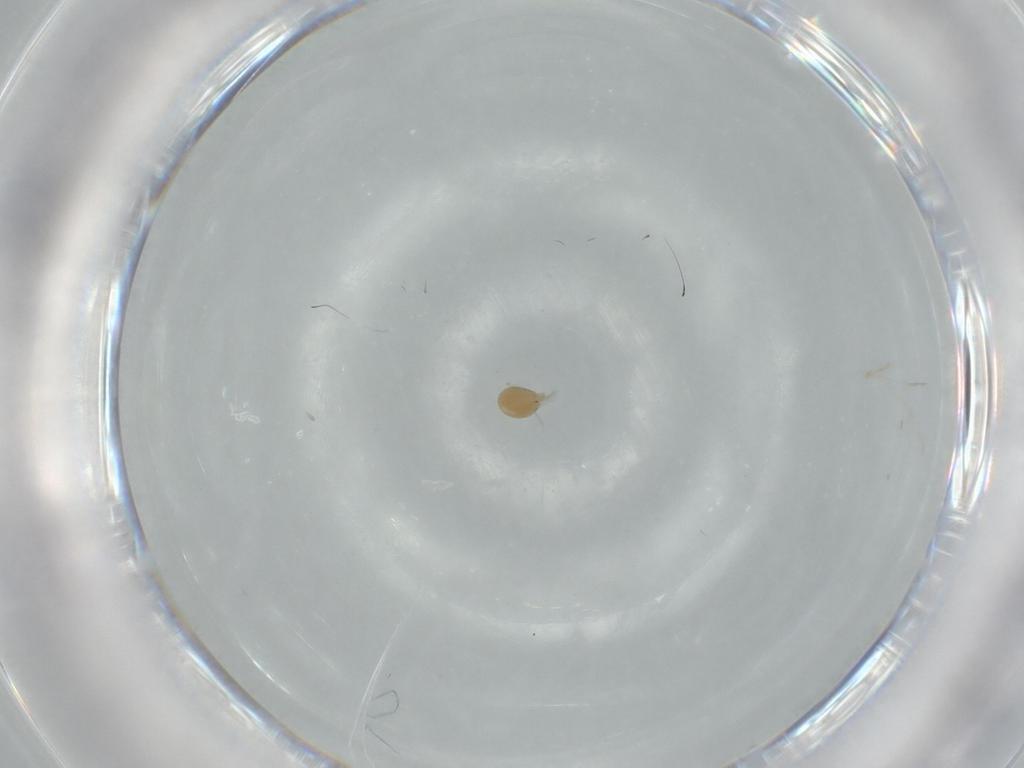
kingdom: Animalia
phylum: Arthropoda
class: Arachnida
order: Trombidiformes
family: Limnesiidae
